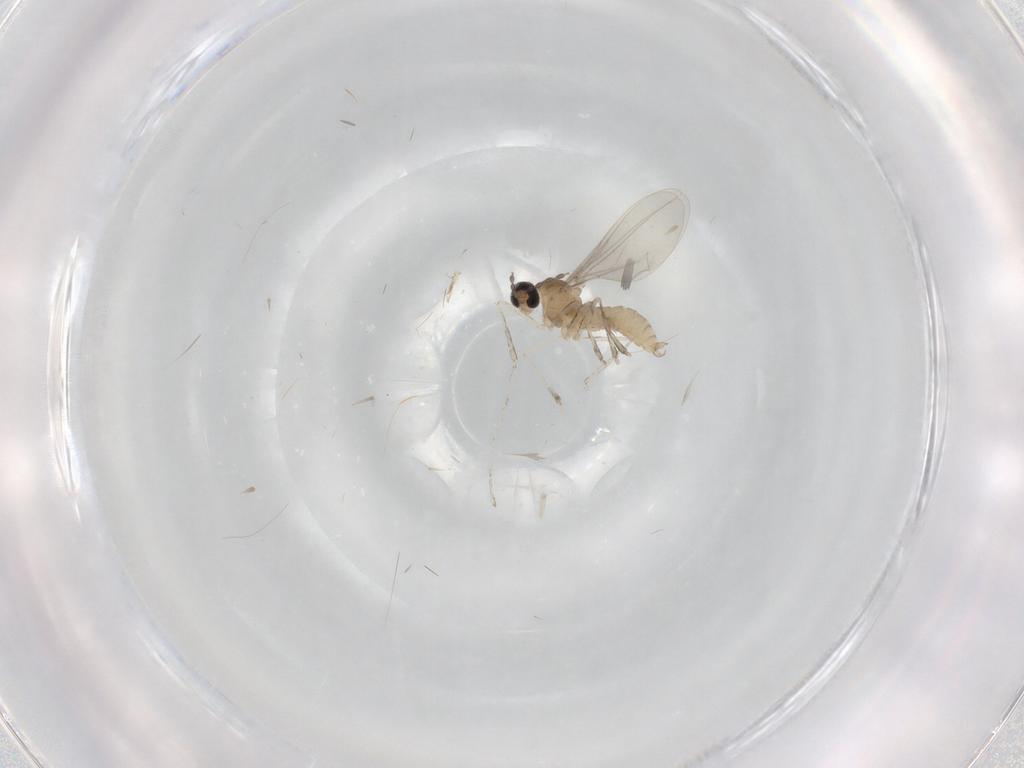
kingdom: Animalia
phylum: Arthropoda
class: Insecta
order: Diptera
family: Cecidomyiidae
